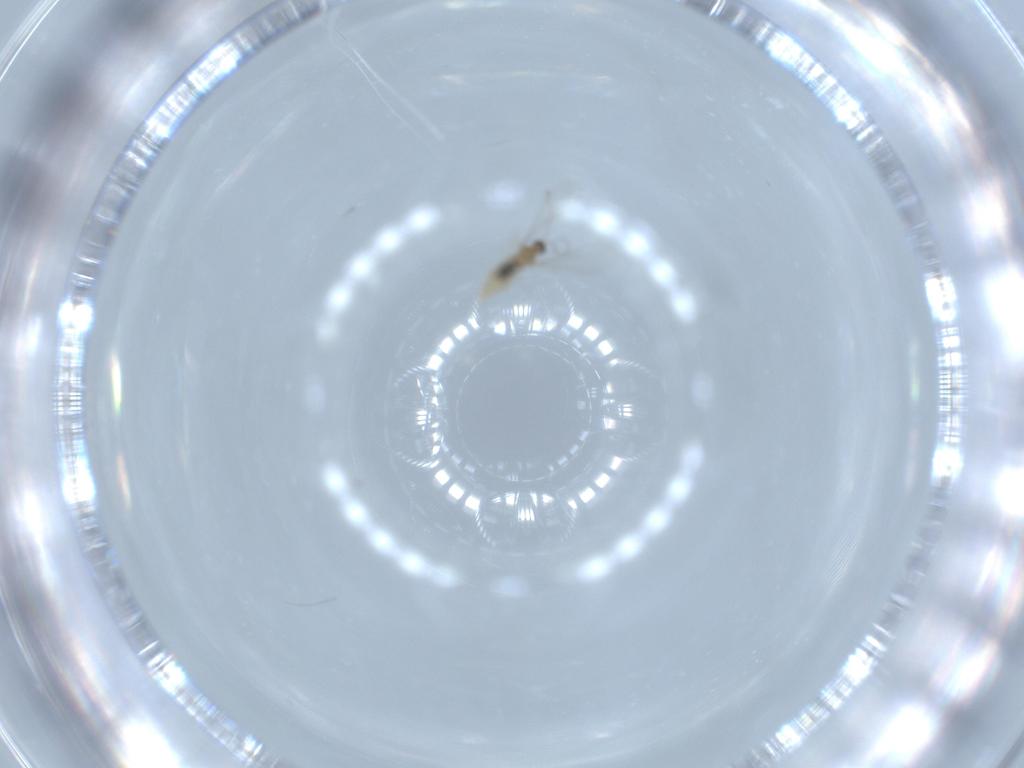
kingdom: Animalia
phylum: Arthropoda
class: Insecta
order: Diptera
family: Cecidomyiidae
